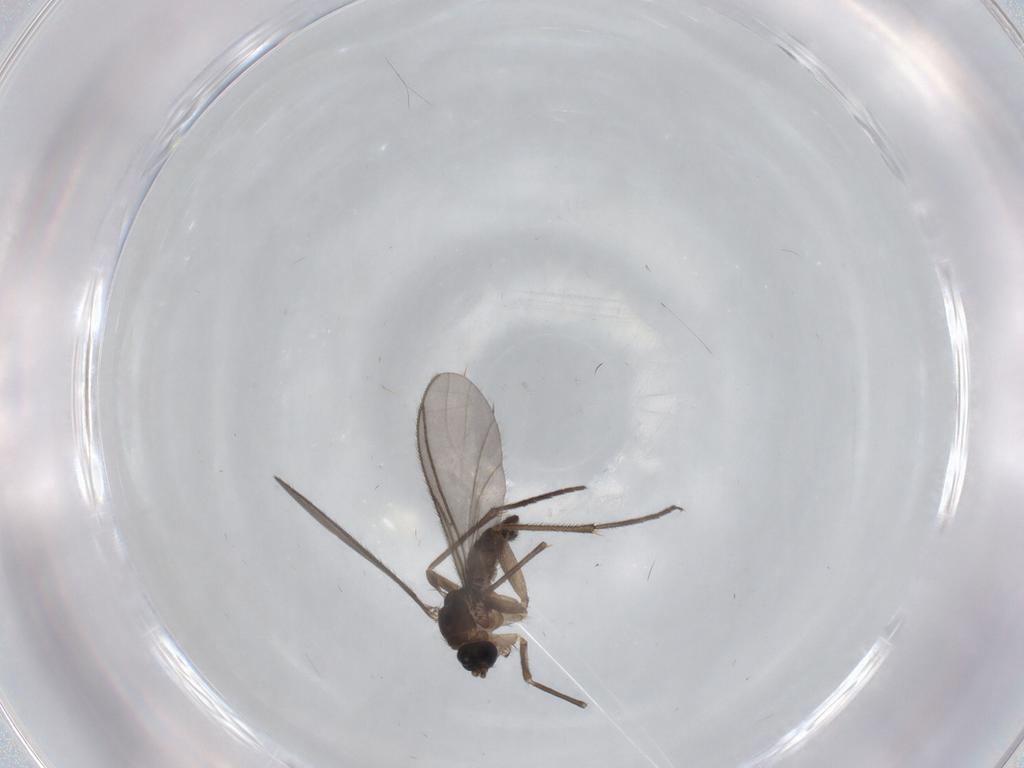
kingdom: Animalia
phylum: Arthropoda
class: Insecta
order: Diptera
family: Sciaridae
